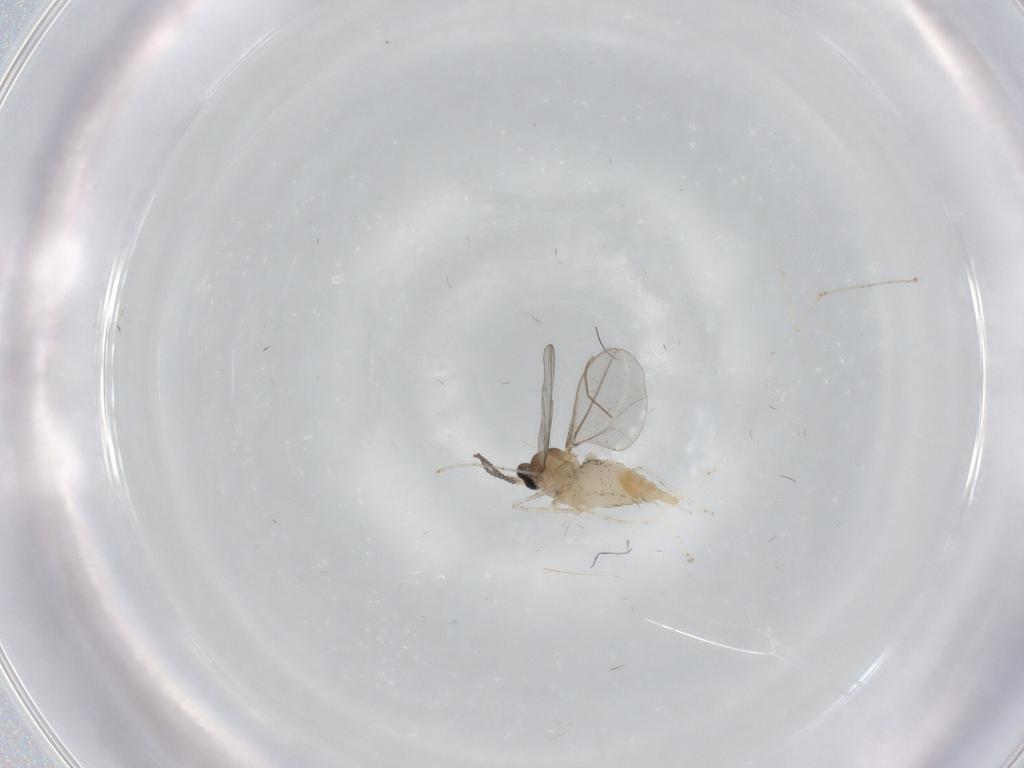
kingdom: Animalia
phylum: Arthropoda
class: Insecta
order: Diptera
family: Cecidomyiidae
